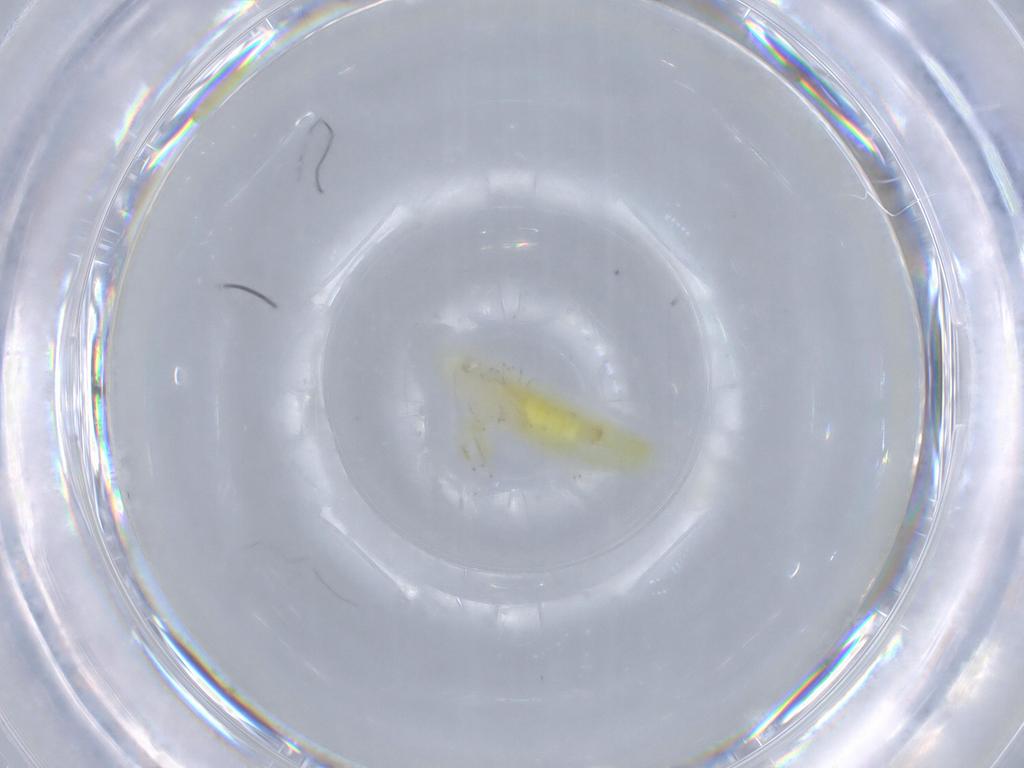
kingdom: Animalia
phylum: Arthropoda
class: Insecta
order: Hemiptera
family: Cicadellidae
